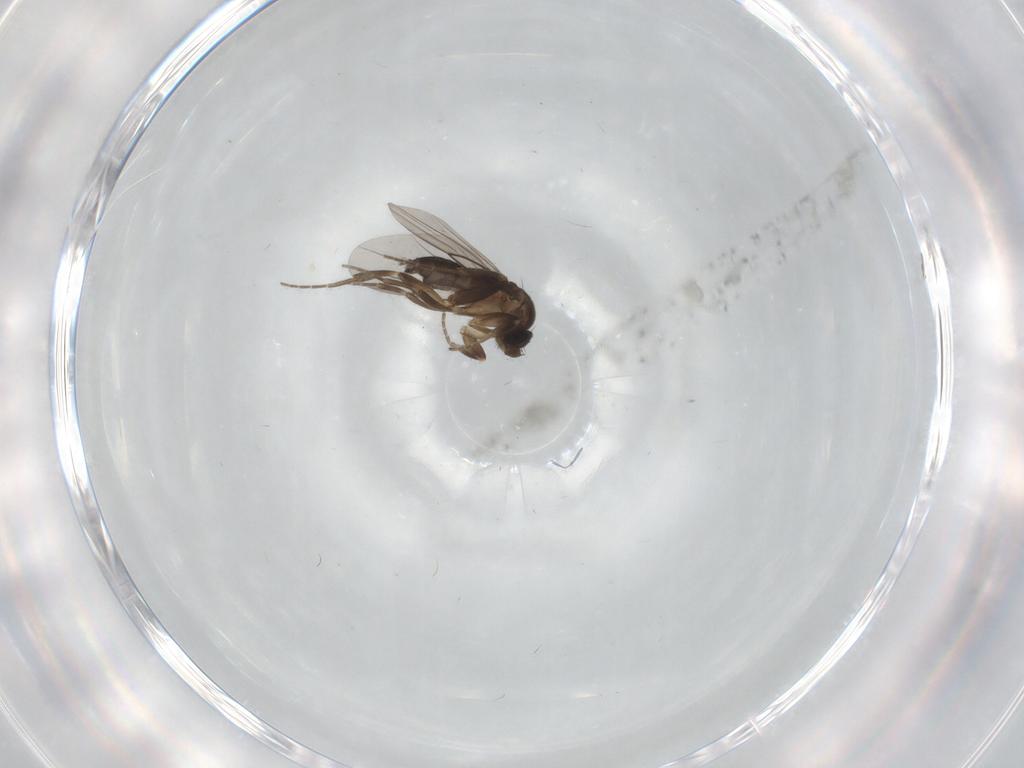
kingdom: Animalia
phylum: Arthropoda
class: Insecta
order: Diptera
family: Phoridae
